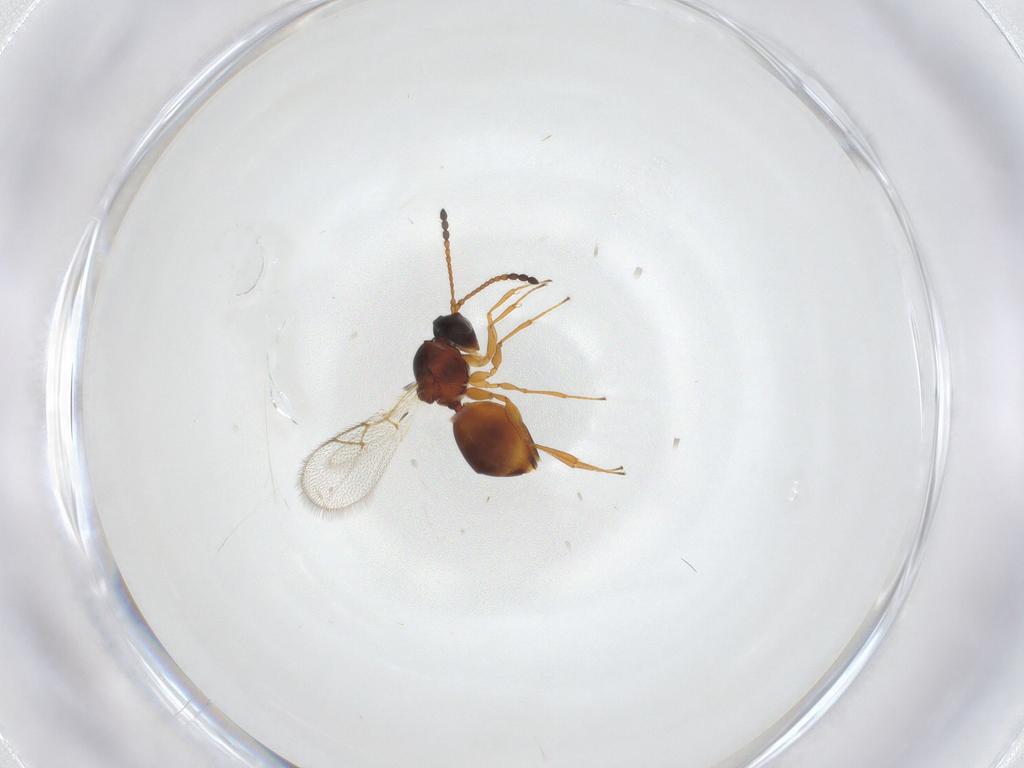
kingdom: Animalia
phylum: Arthropoda
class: Insecta
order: Hymenoptera
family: Figitidae
